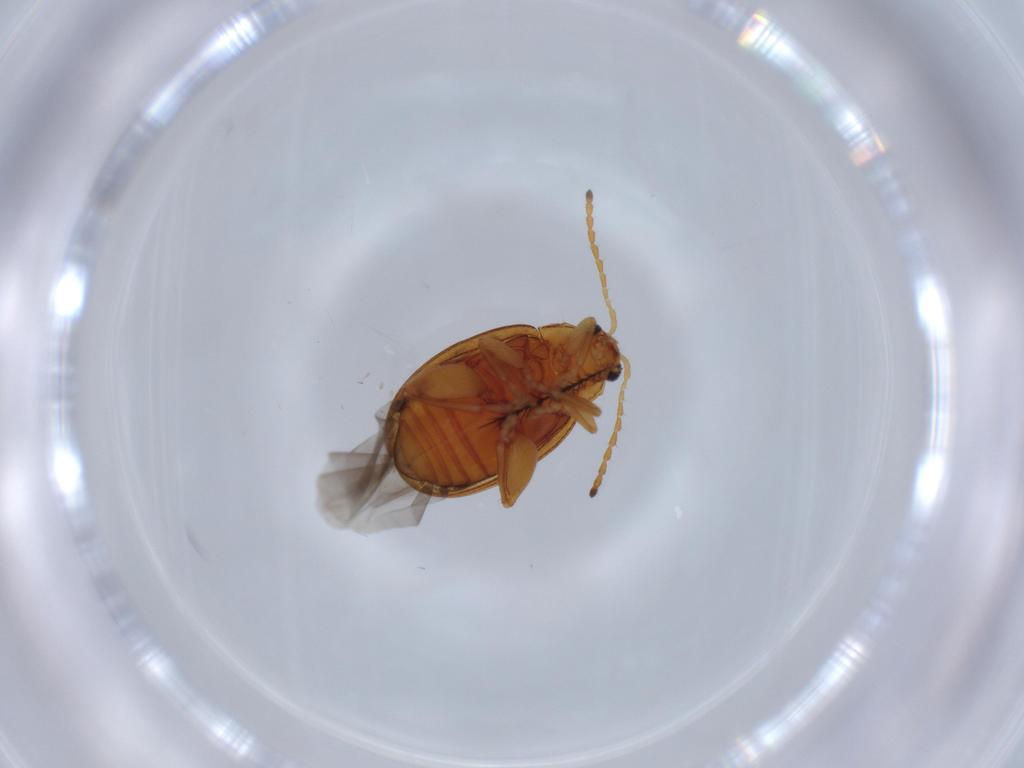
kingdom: Animalia
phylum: Arthropoda
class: Insecta
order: Coleoptera
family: Chrysomelidae
